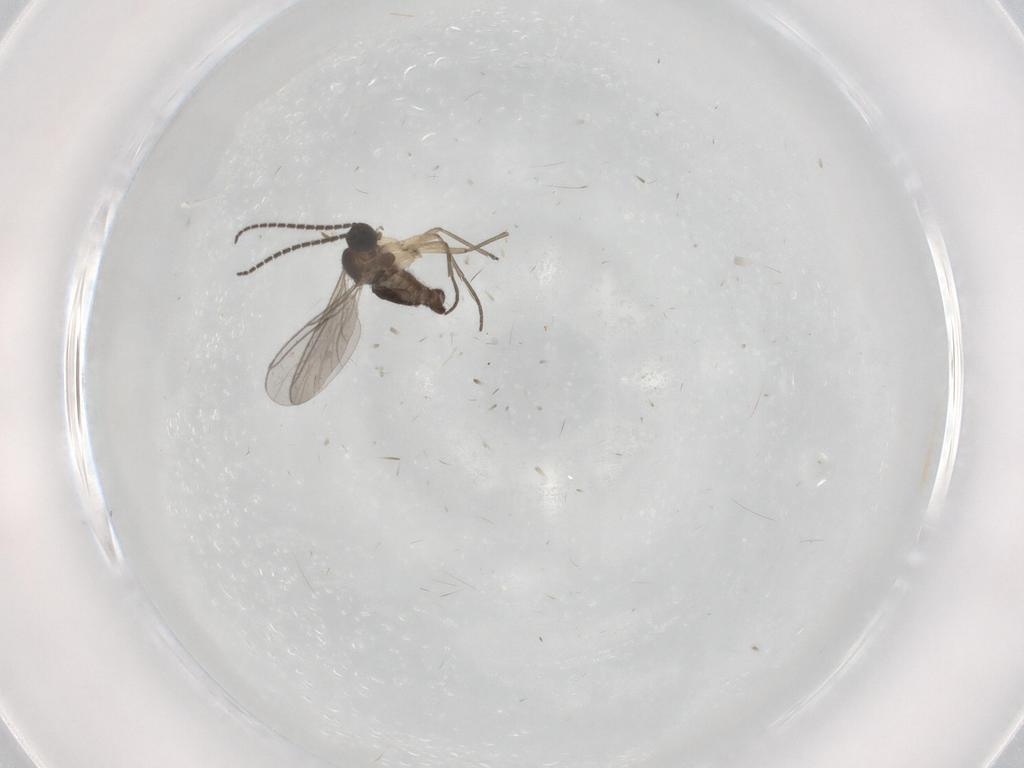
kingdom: Animalia
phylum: Arthropoda
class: Insecta
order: Diptera
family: Sciaridae
